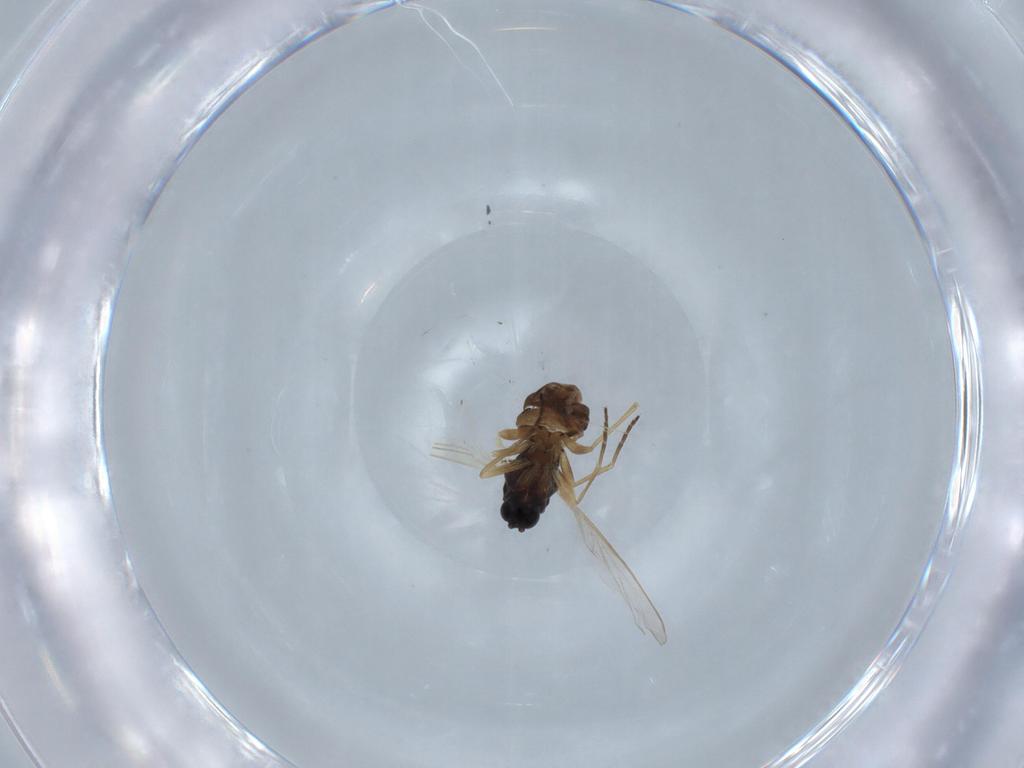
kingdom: Animalia
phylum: Arthropoda
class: Insecta
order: Diptera
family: Sciaridae
